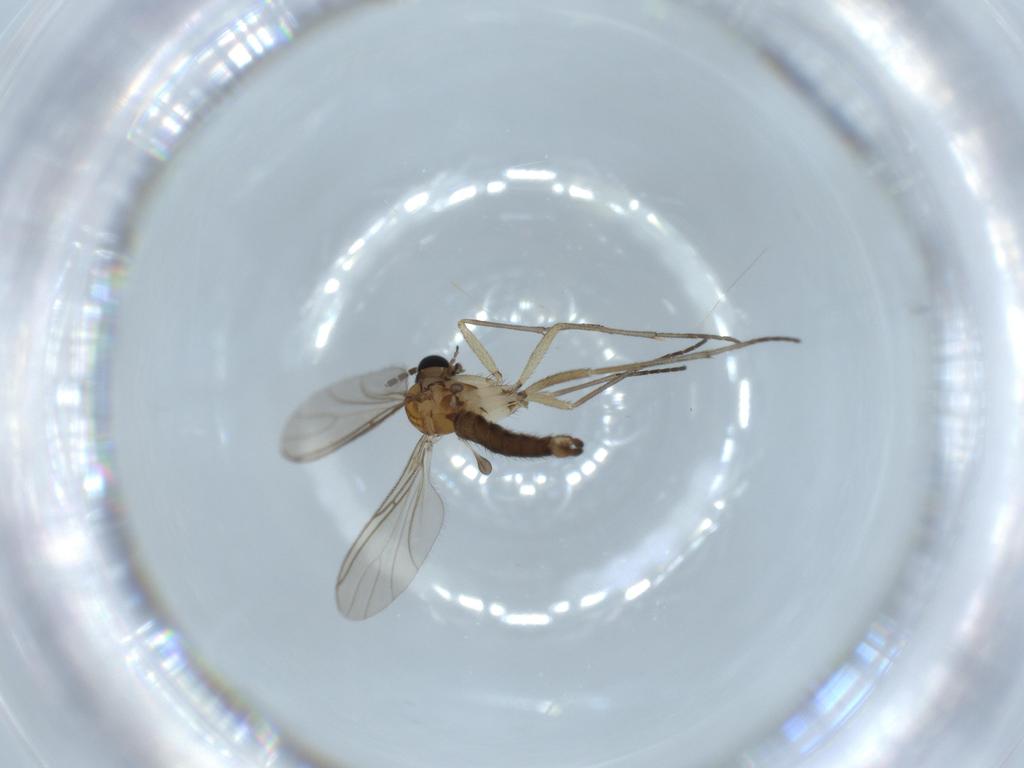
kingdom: Animalia
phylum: Arthropoda
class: Insecta
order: Diptera
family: Sciaridae
